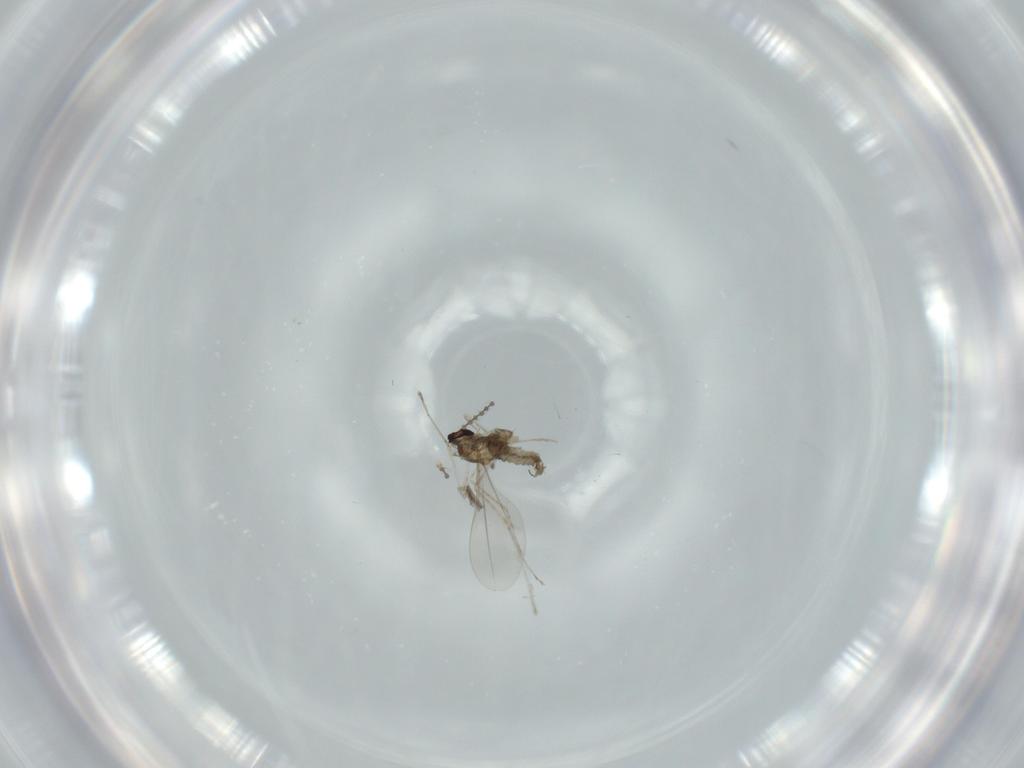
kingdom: Animalia
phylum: Arthropoda
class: Insecta
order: Diptera
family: Cecidomyiidae
